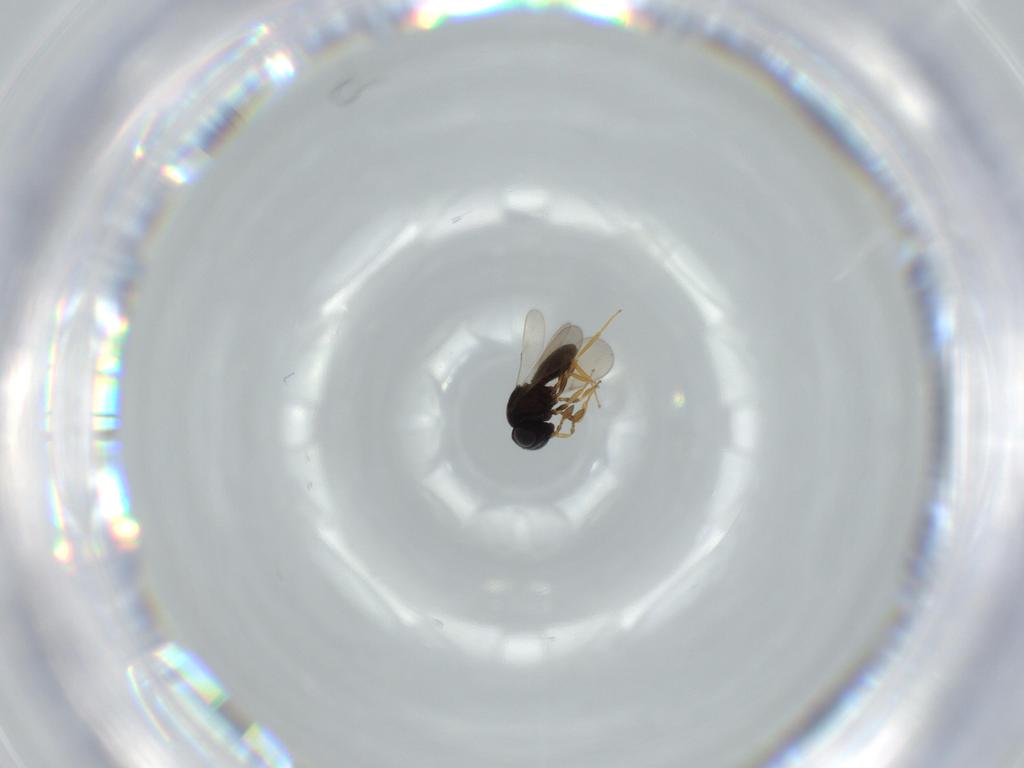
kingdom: Animalia
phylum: Arthropoda
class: Insecta
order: Hymenoptera
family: Scelionidae
